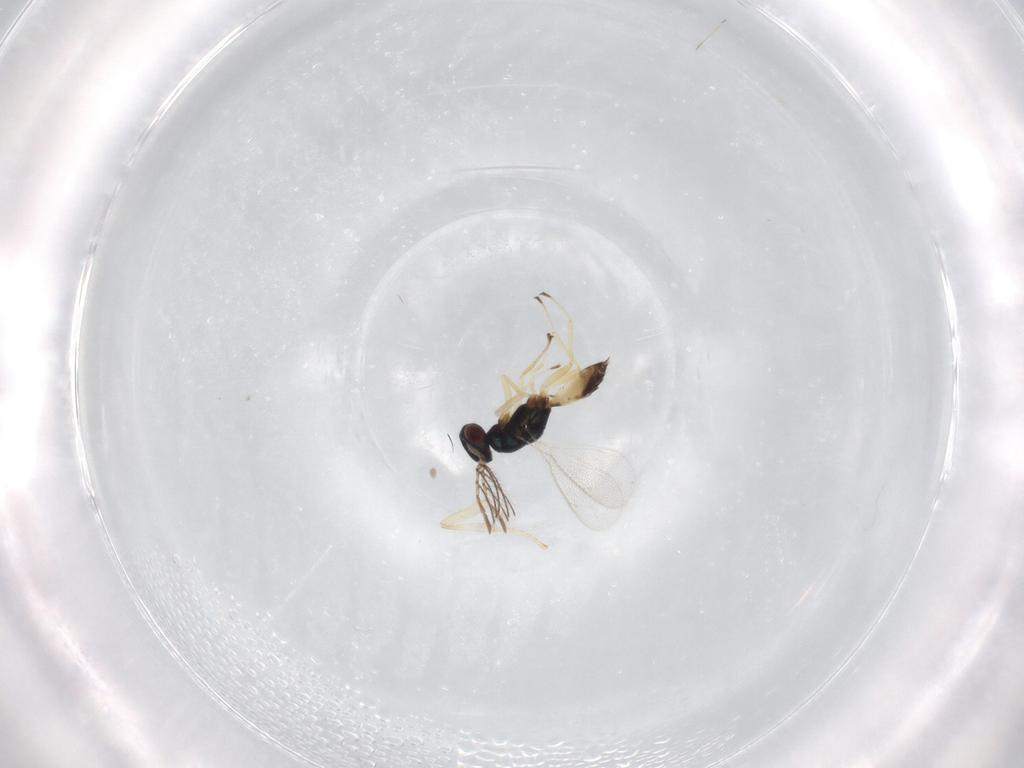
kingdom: Animalia
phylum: Arthropoda
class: Insecta
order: Hymenoptera
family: Eulophidae
